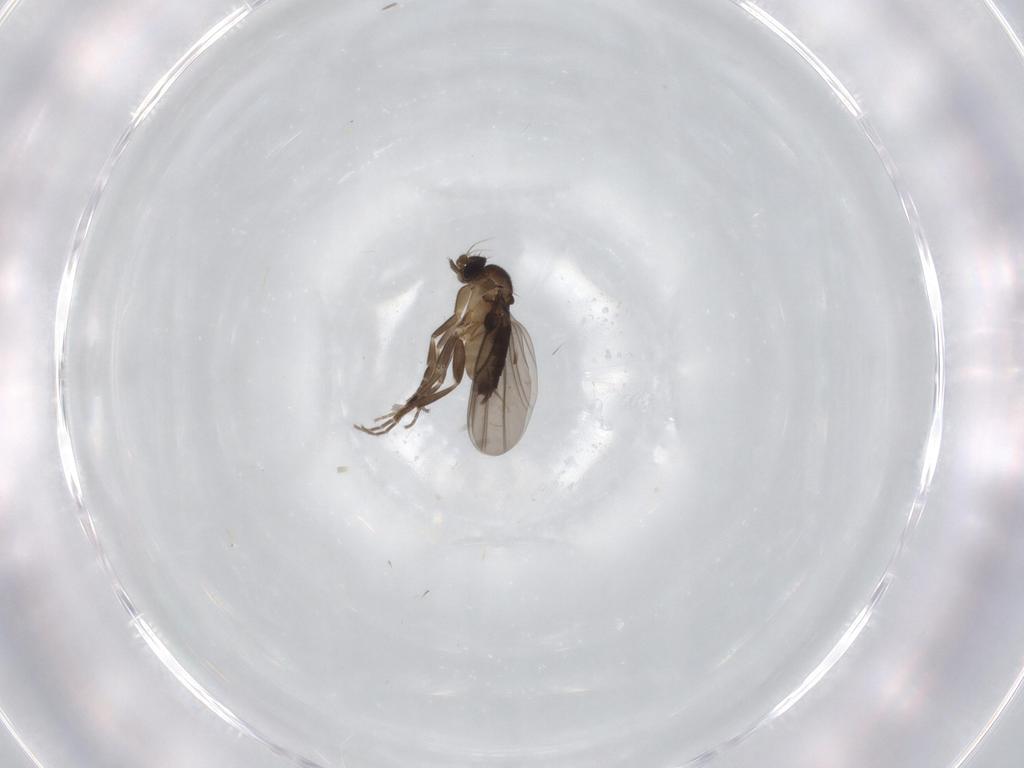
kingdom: Animalia
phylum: Arthropoda
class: Insecta
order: Diptera
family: Phoridae
